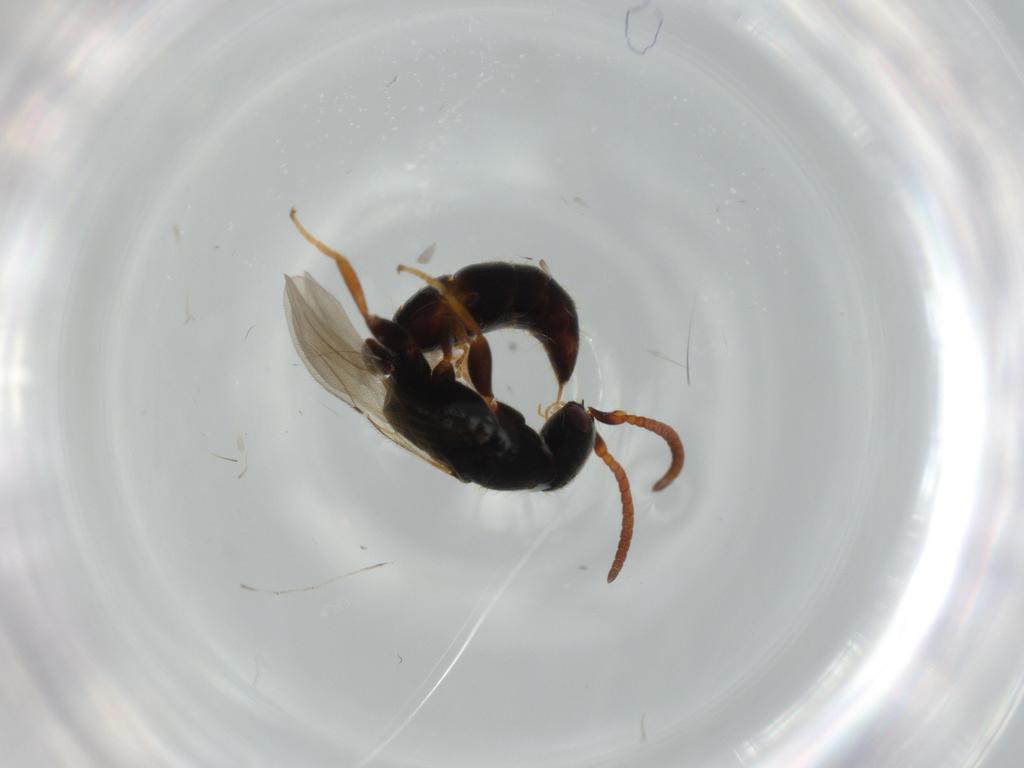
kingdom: Animalia
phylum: Arthropoda
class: Insecta
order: Hymenoptera
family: Bethylidae
